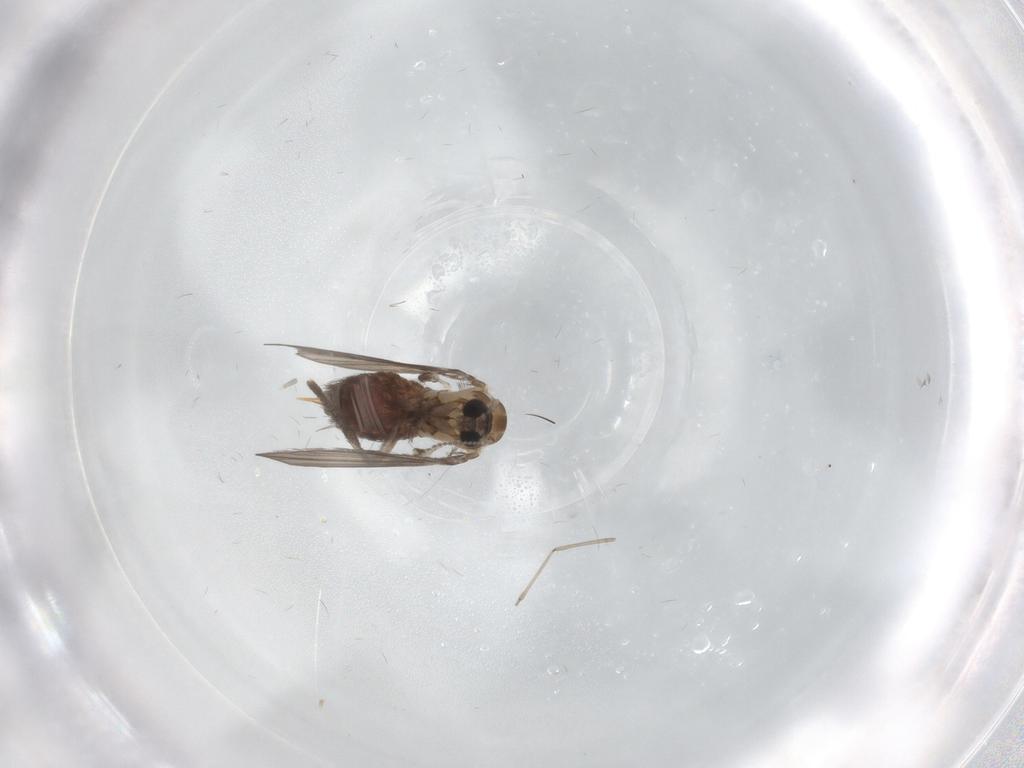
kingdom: Animalia
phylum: Arthropoda
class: Insecta
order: Diptera
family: Psychodidae
